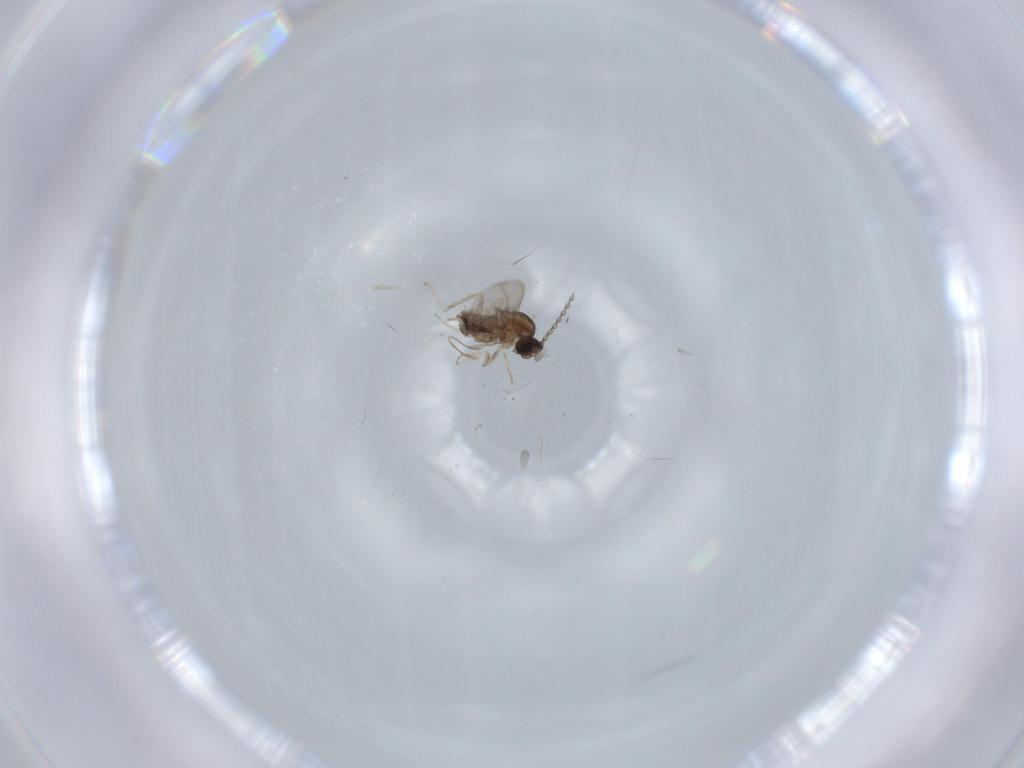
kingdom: Animalia
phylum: Arthropoda
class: Insecta
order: Diptera
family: Cecidomyiidae
